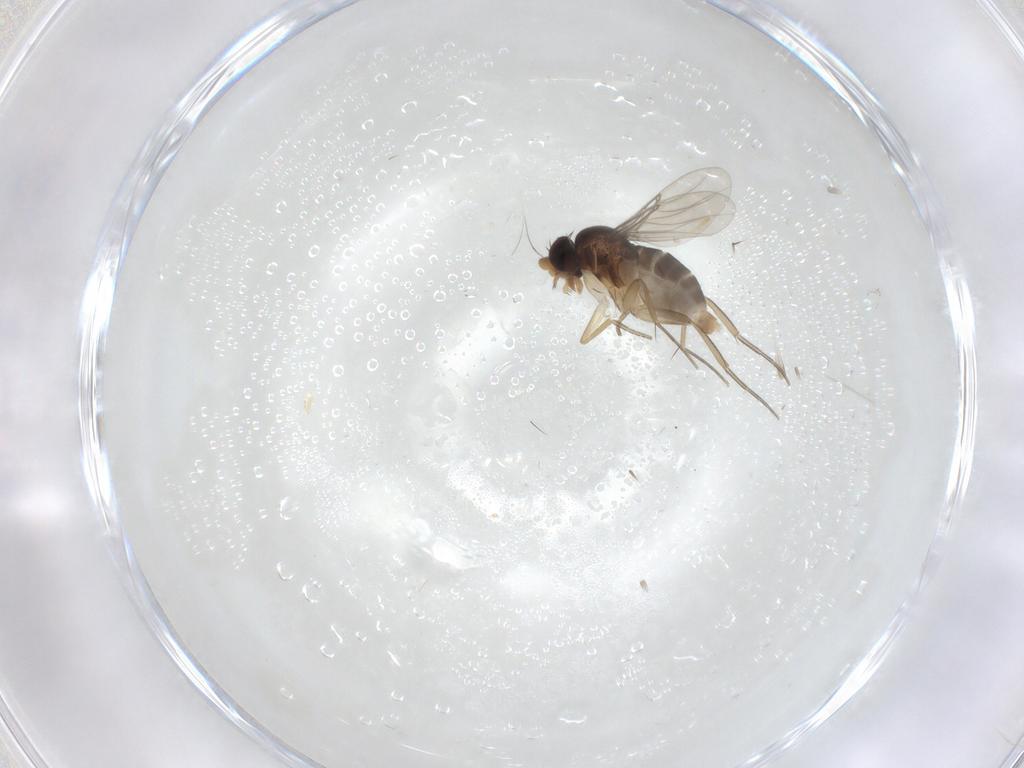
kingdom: Animalia
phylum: Arthropoda
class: Insecta
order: Diptera
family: Phoridae
